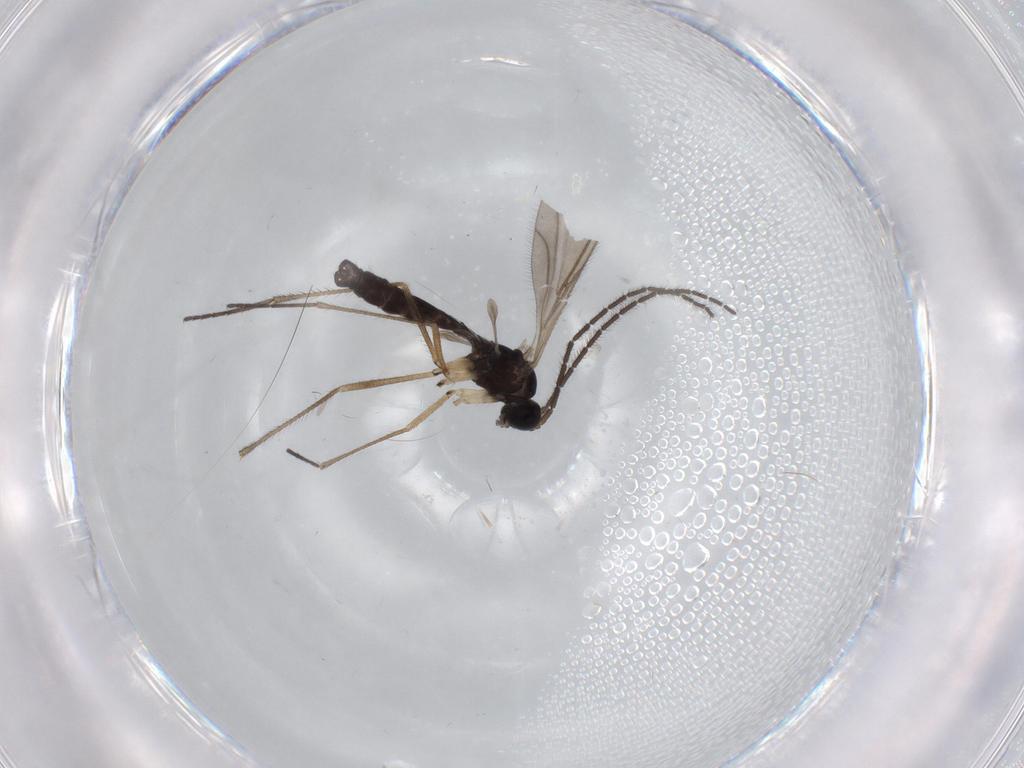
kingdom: Animalia
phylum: Arthropoda
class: Insecta
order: Diptera
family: Sciaridae
